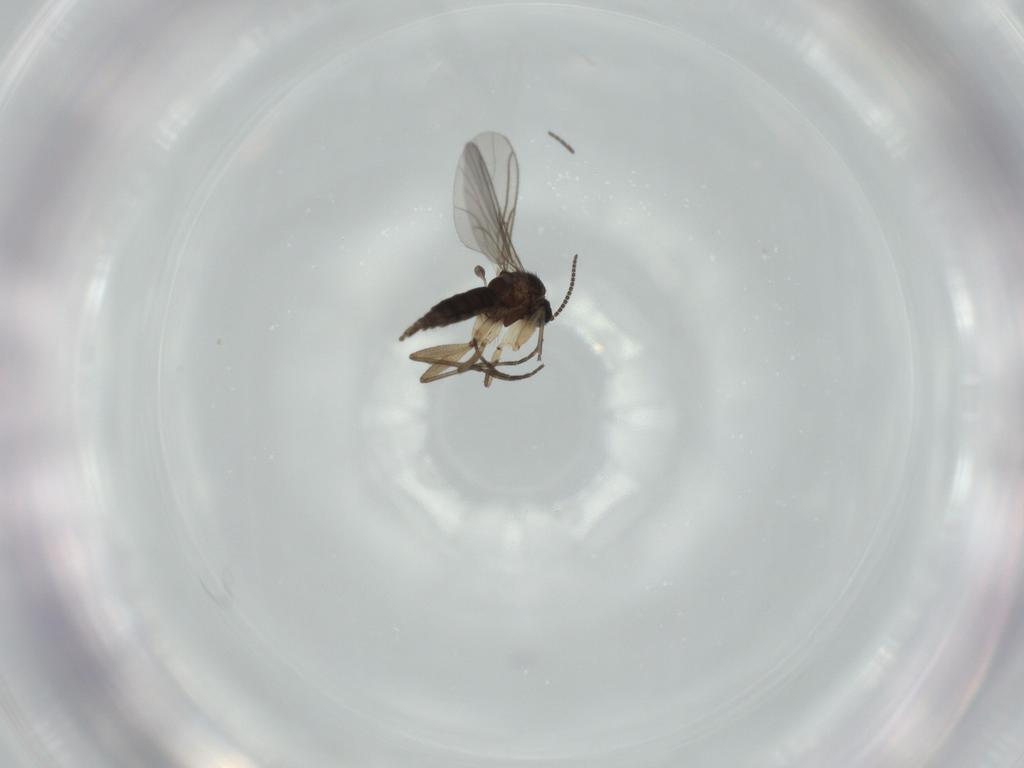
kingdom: Animalia
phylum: Arthropoda
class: Insecta
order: Diptera
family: Sciaridae
